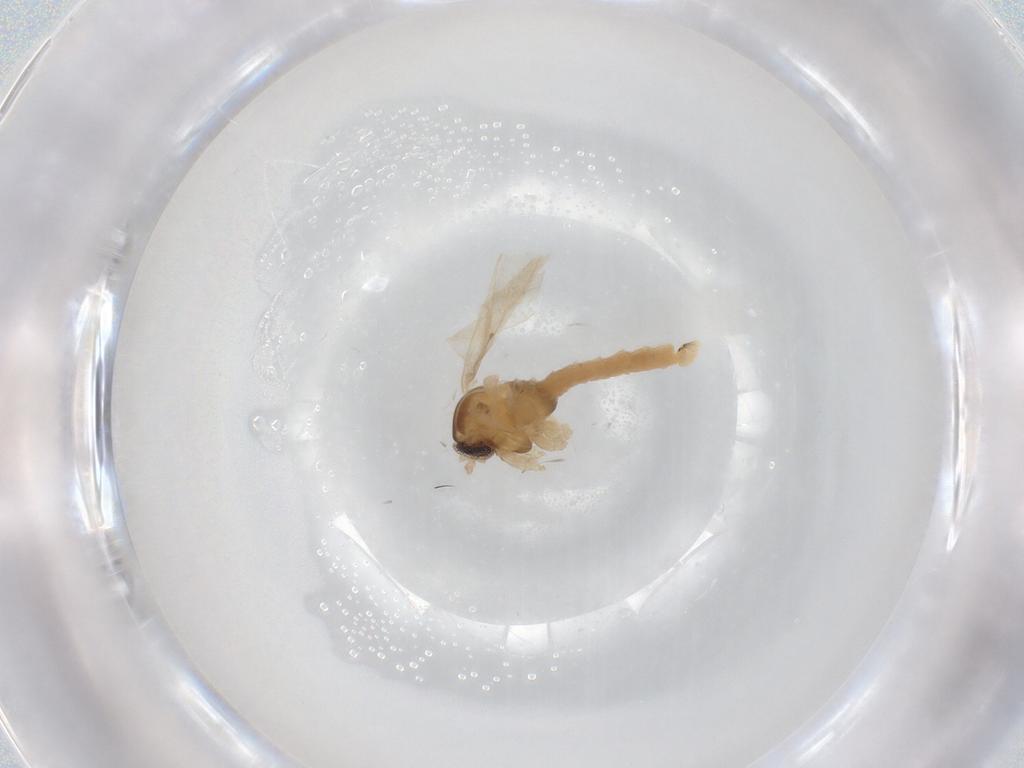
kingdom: Animalia
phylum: Arthropoda
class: Insecta
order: Diptera
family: Cecidomyiidae
